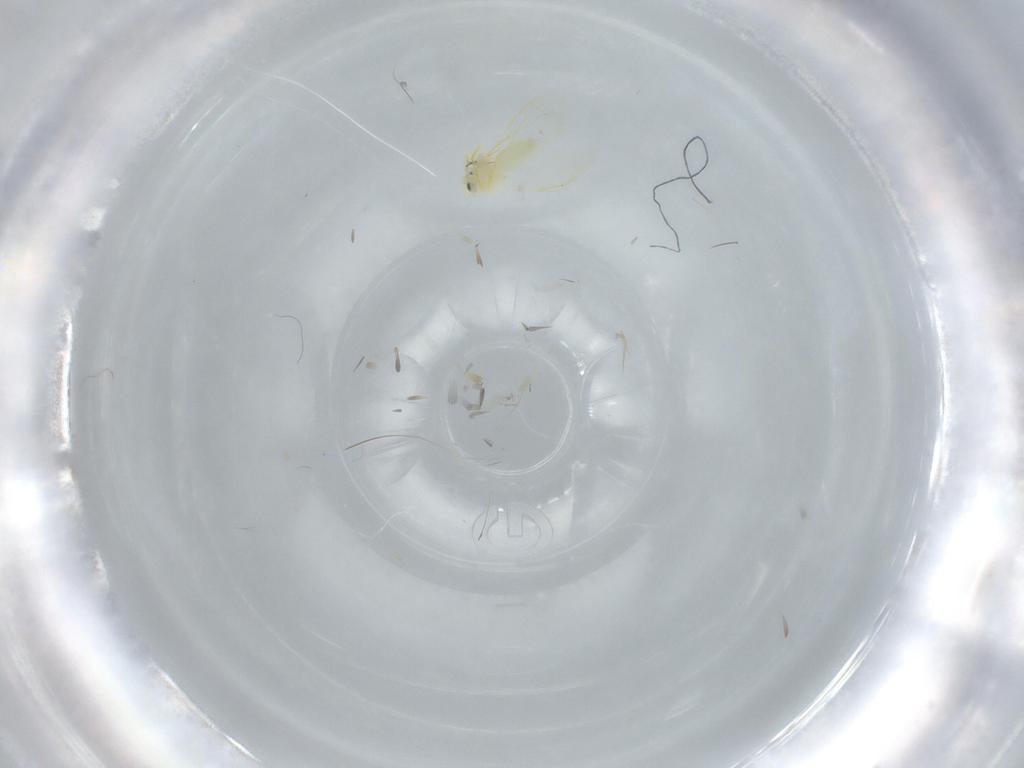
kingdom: Animalia
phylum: Arthropoda
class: Insecta
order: Hemiptera
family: Aleyrodidae
